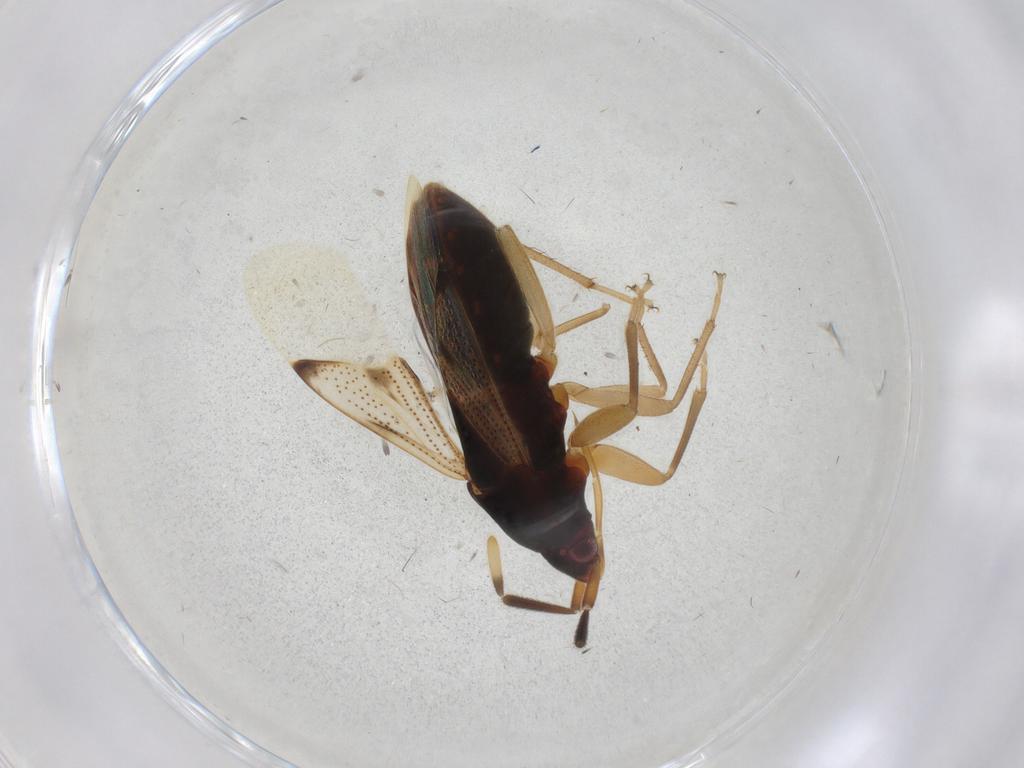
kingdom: Animalia
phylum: Arthropoda
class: Insecta
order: Hemiptera
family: Rhyparochromidae
